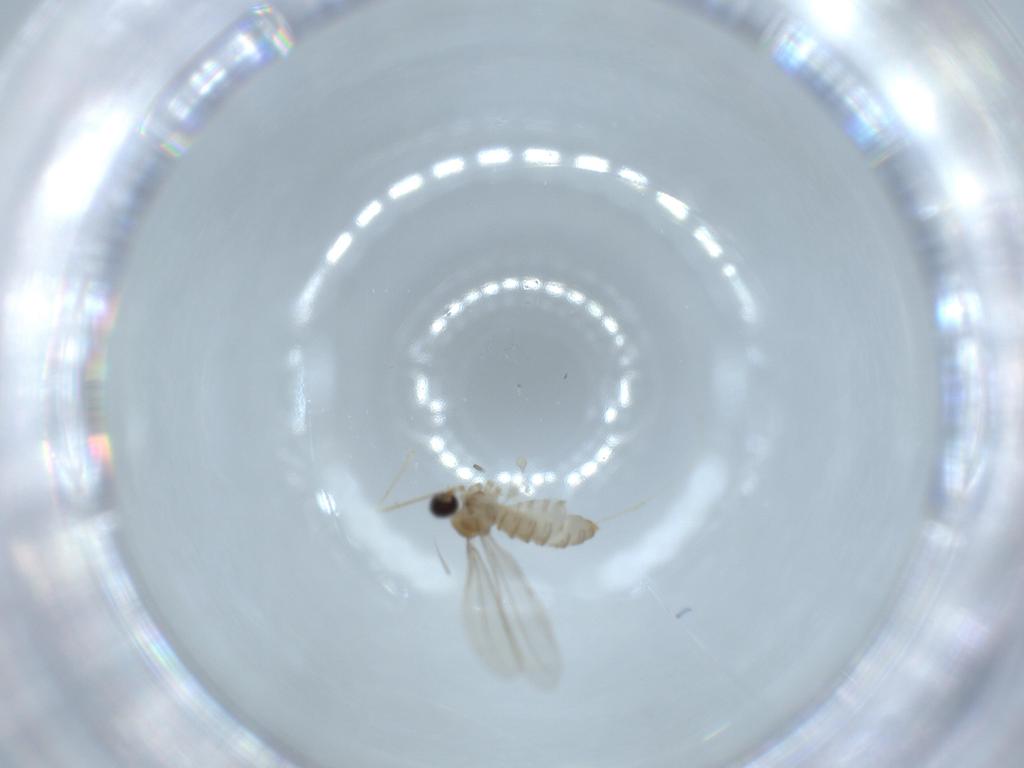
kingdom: Animalia
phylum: Arthropoda
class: Insecta
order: Diptera
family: Cecidomyiidae
